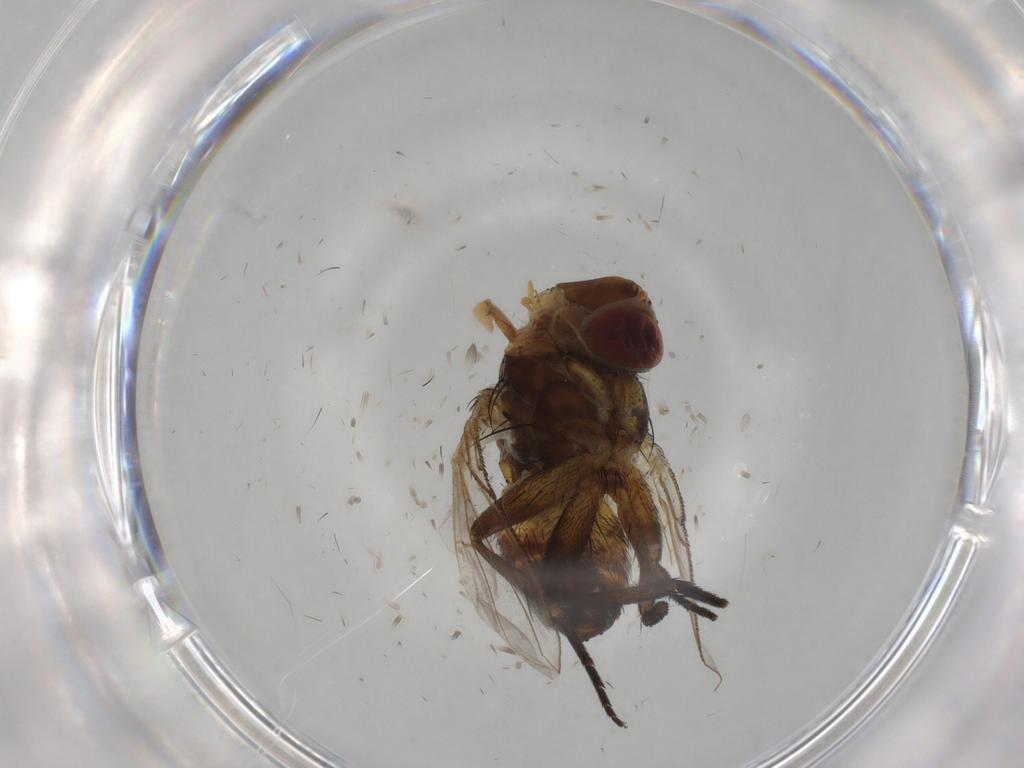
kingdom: Animalia
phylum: Arthropoda
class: Insecta
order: Diptera
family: Glossinidae
